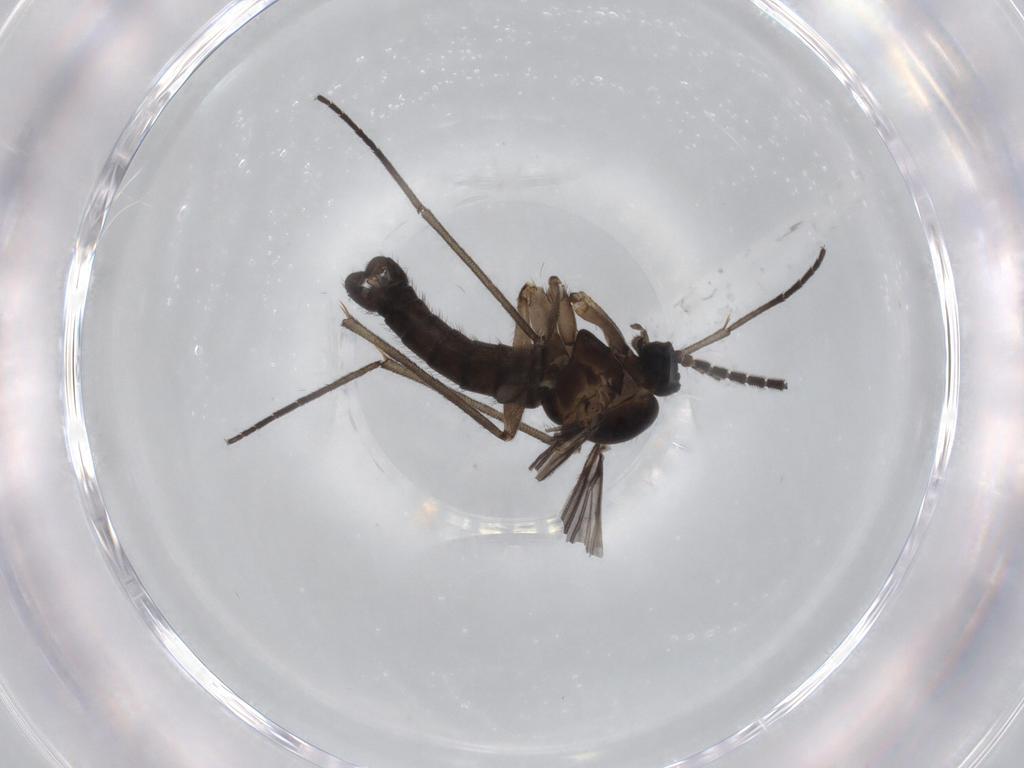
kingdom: Animalia
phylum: Arthropoda
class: Insecta
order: Diptera
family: Sciaridae
